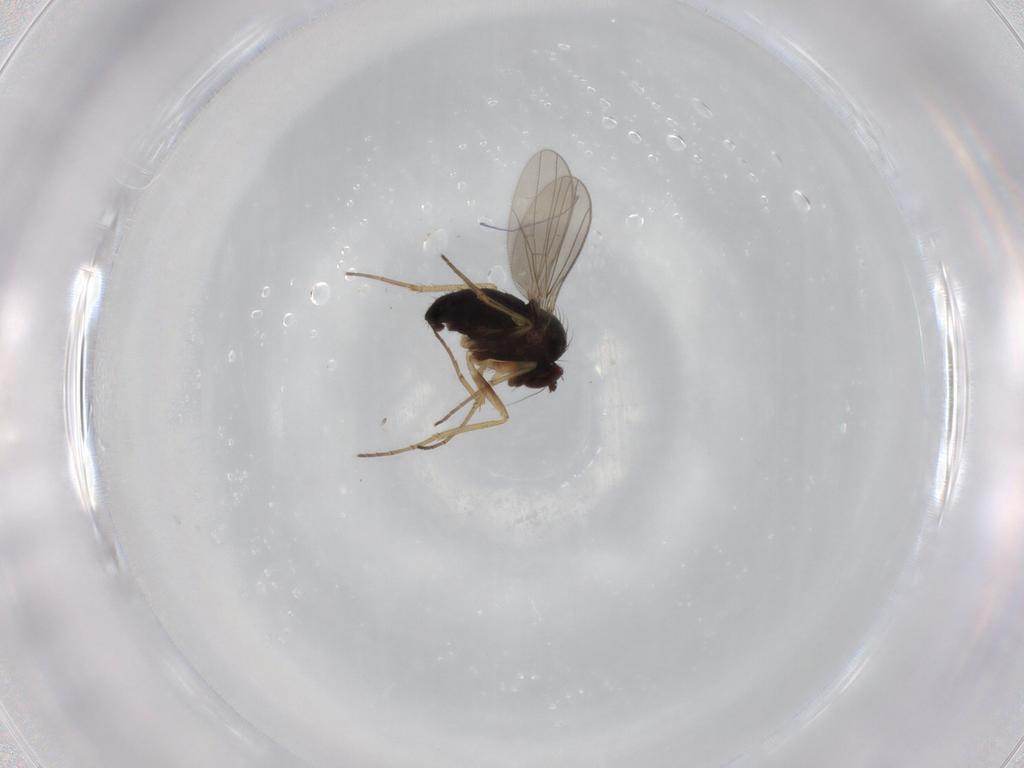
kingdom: Animalia
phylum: Arthropoda
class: Insecta
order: Diptera
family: Dolichopodidae
